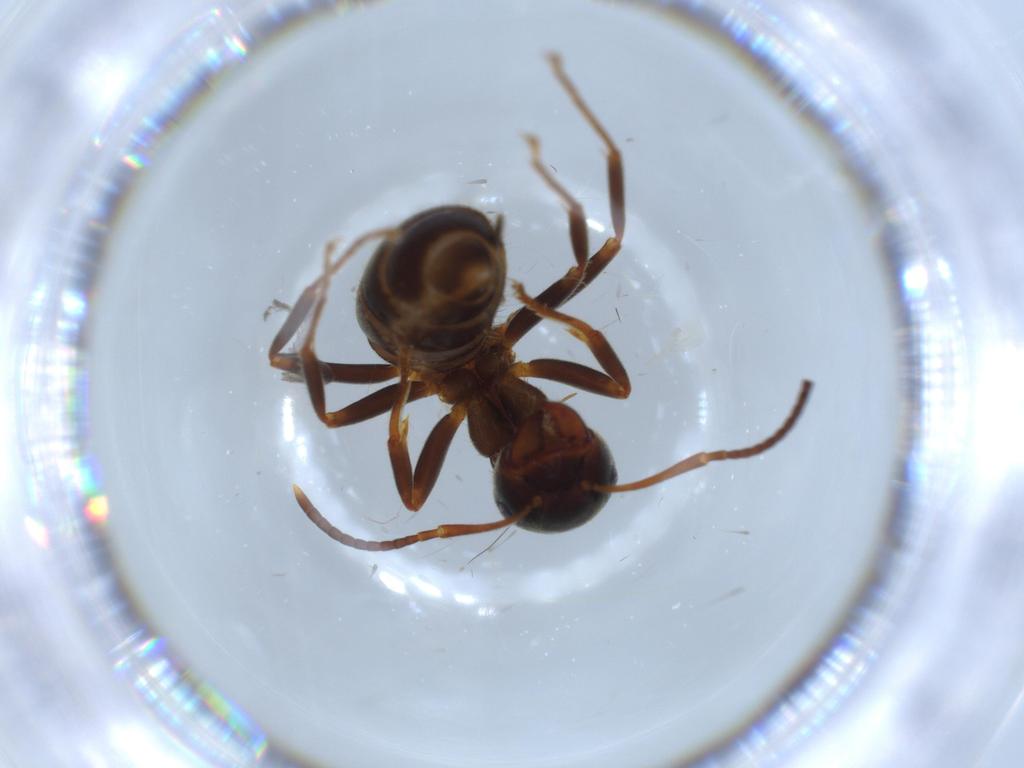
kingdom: Animalia
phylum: Arthropoda
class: Insecta
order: Hymenoptera
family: Formicidae
